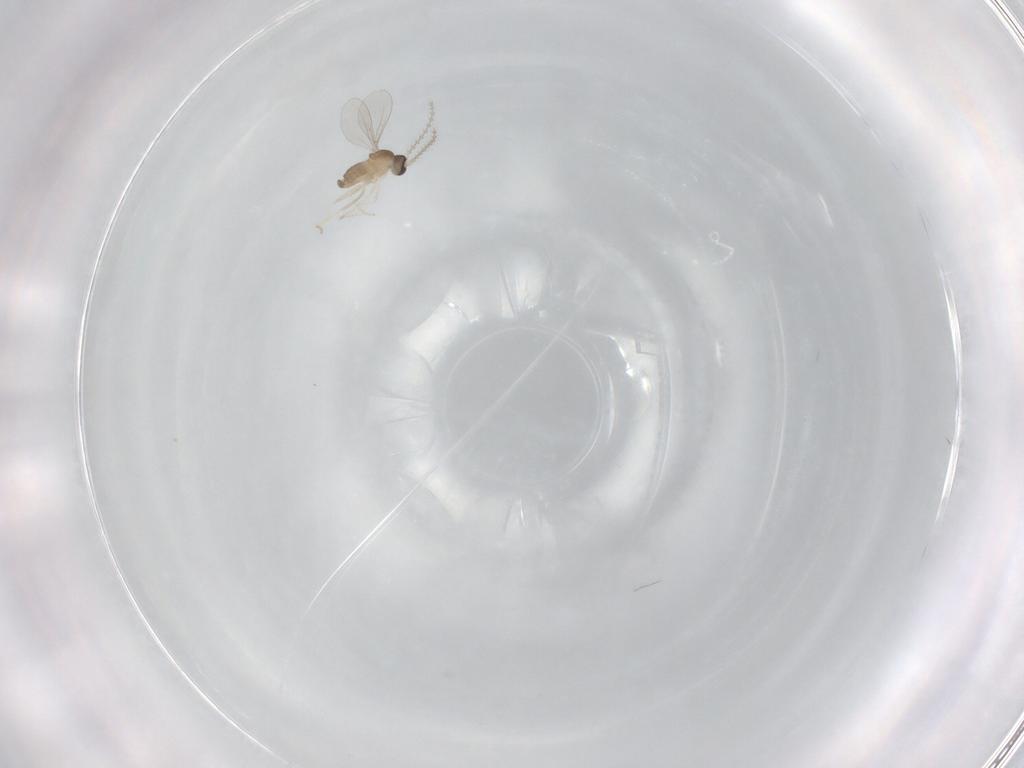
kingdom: Animalia
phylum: Arthropoda
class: Insecta
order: Diptera
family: Cecidomyiidae
